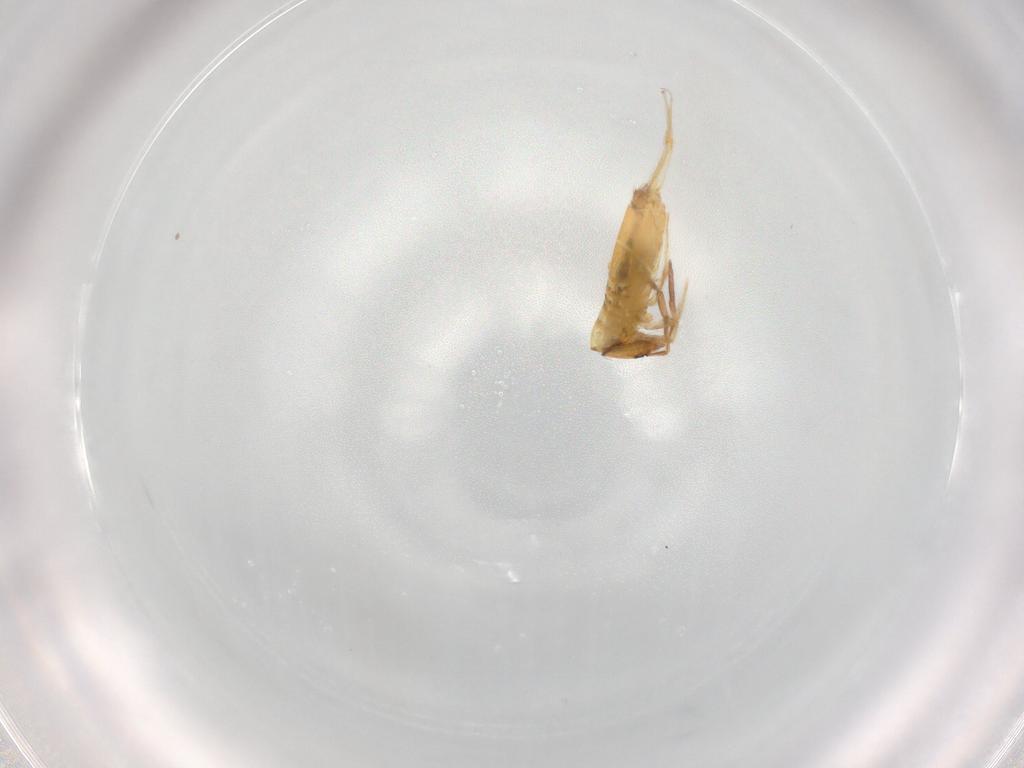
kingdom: Animalia
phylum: Arthropoda
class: Collembola
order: Entomobryomorpha
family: Entomobryidae
